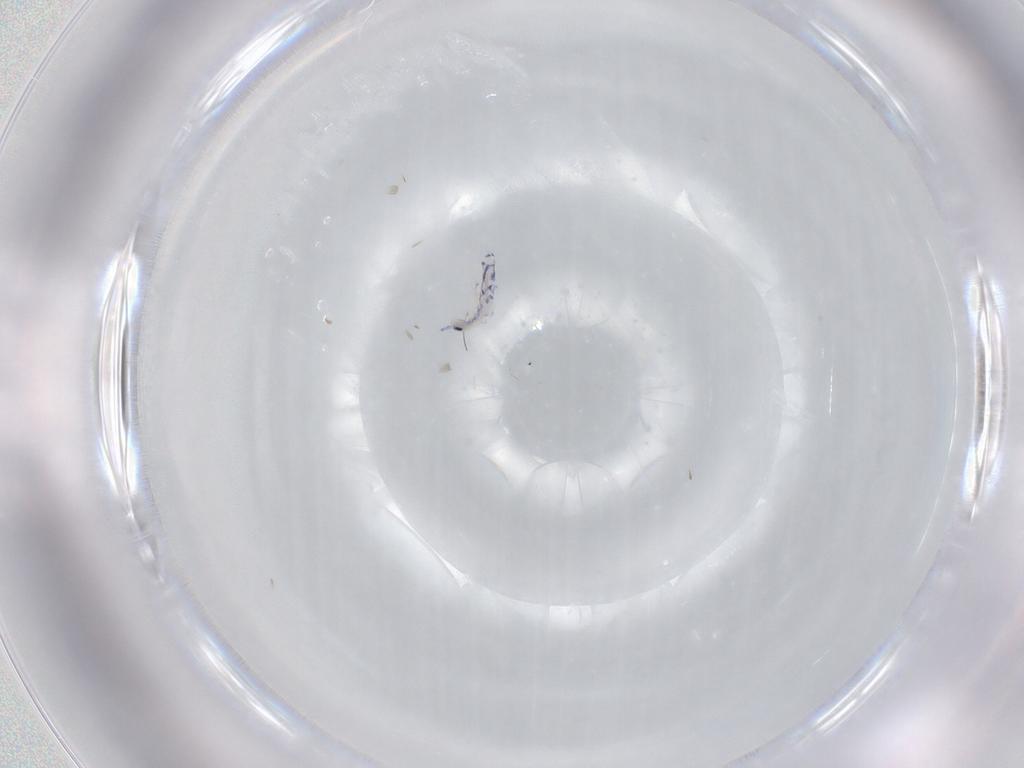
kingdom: Animalia
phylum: Arthropoda
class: Collembola
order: Entomobryomorpha
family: Entomobryidae
